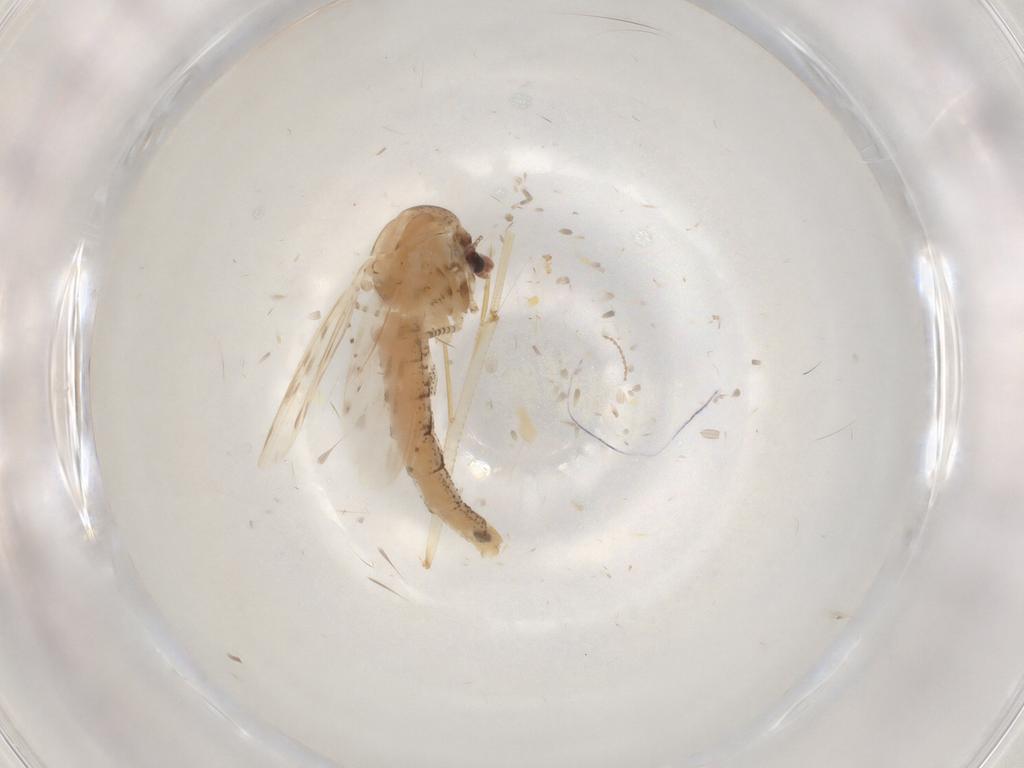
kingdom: Animalia
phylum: Arthropoda
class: Insecta
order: Diptera
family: Chaoboridae
